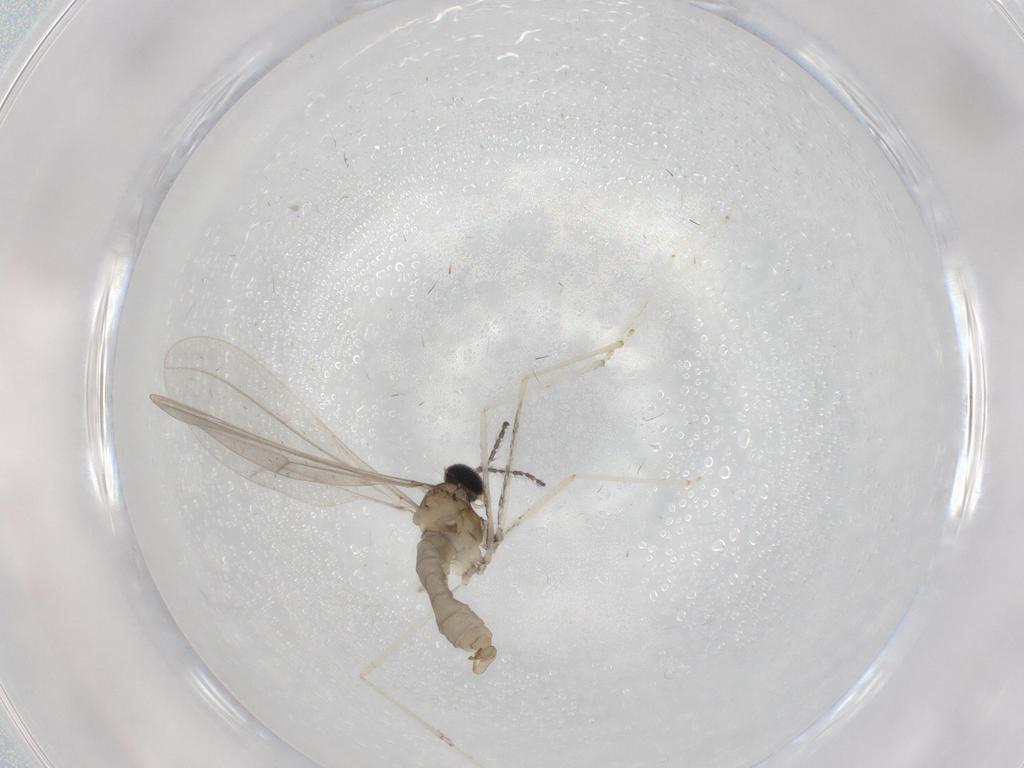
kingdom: Animalia
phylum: Arthropoda
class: Insecta
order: Diptera
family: Cecidomyiidae
